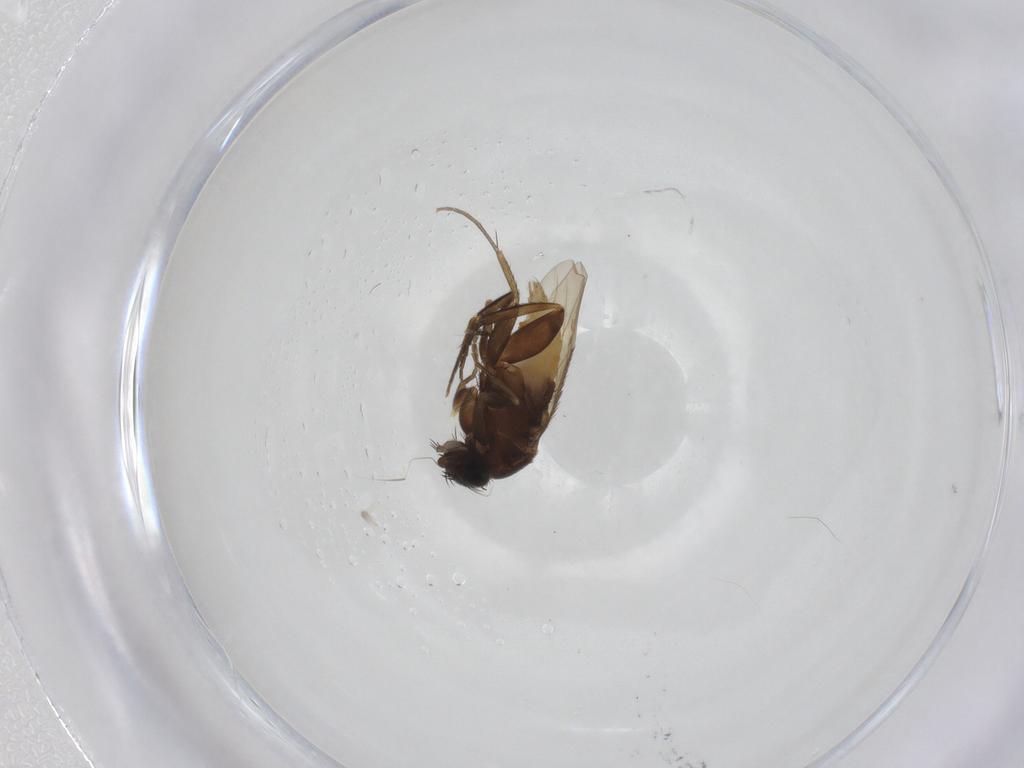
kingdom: Animalia
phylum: Arthropoda
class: Insecta
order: Diptera
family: Phoridae
